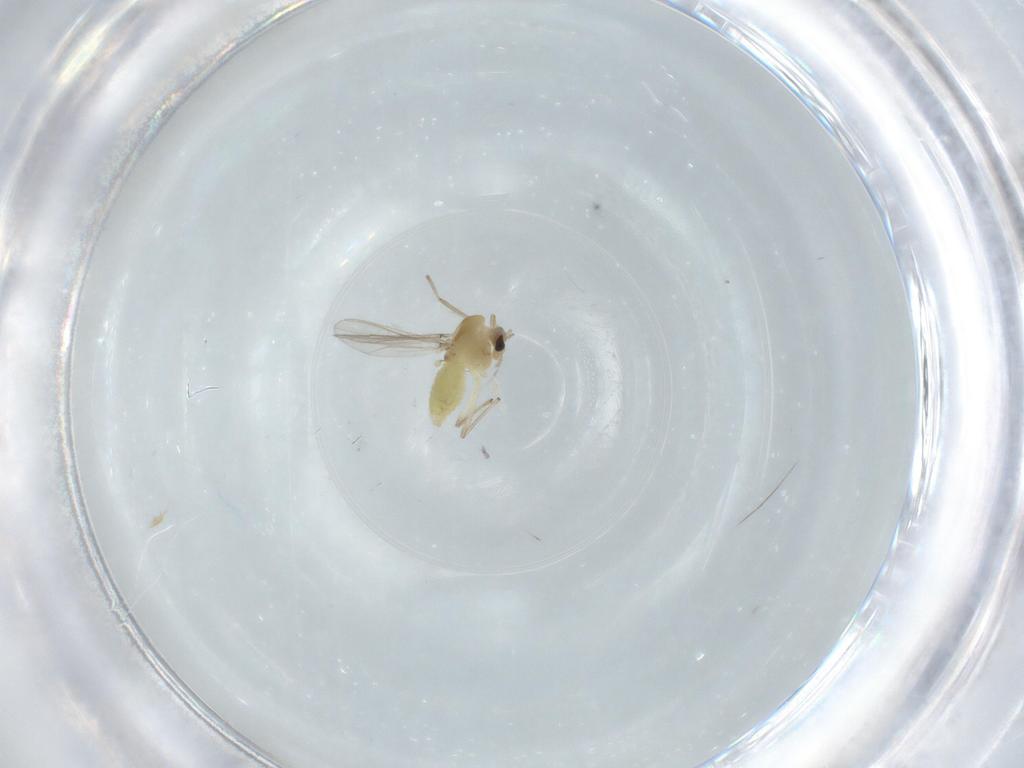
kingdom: Animalia
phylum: Arthropoda
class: Insecta
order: Diptera
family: Chironomidae
